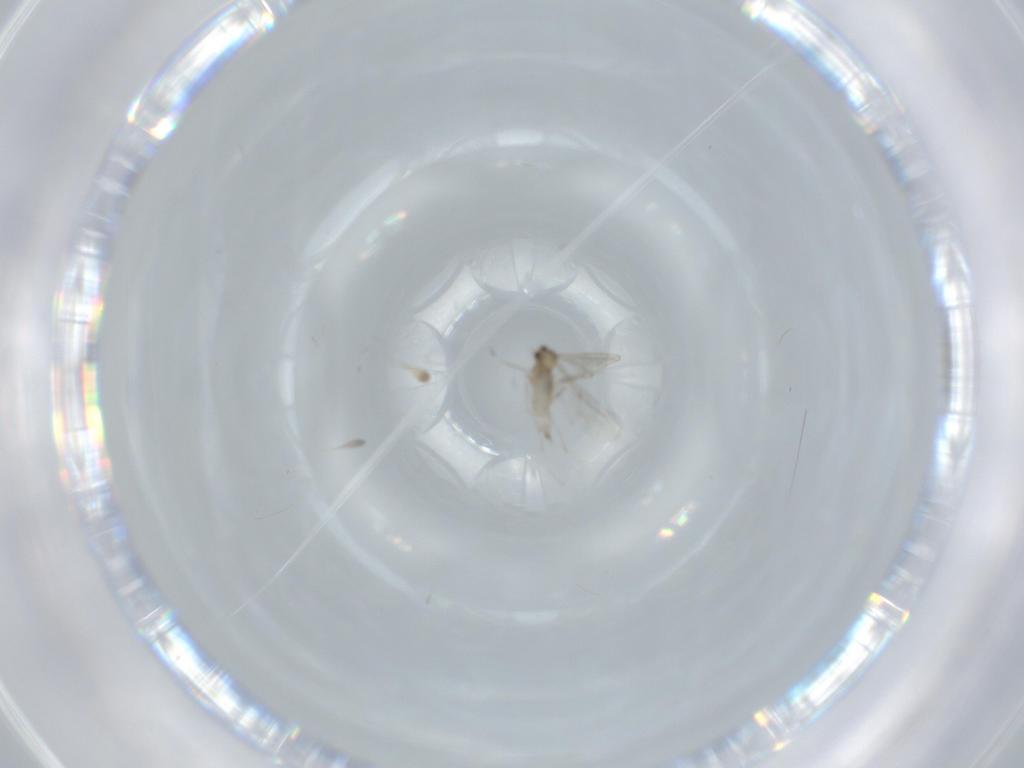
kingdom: Animalia
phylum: Arthropoda
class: Insecta
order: Diptera
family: Cecidomyiidae
